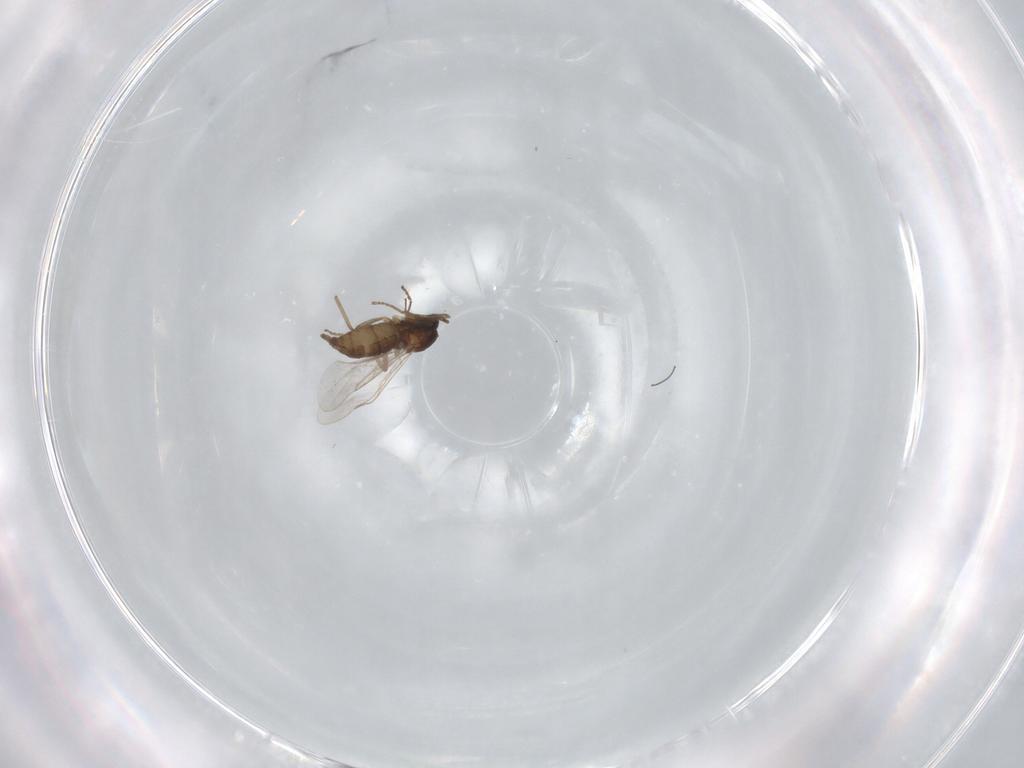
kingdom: Animalia
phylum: Arthropoda
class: Insecta
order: Diptera
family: Cecidomyiidae
